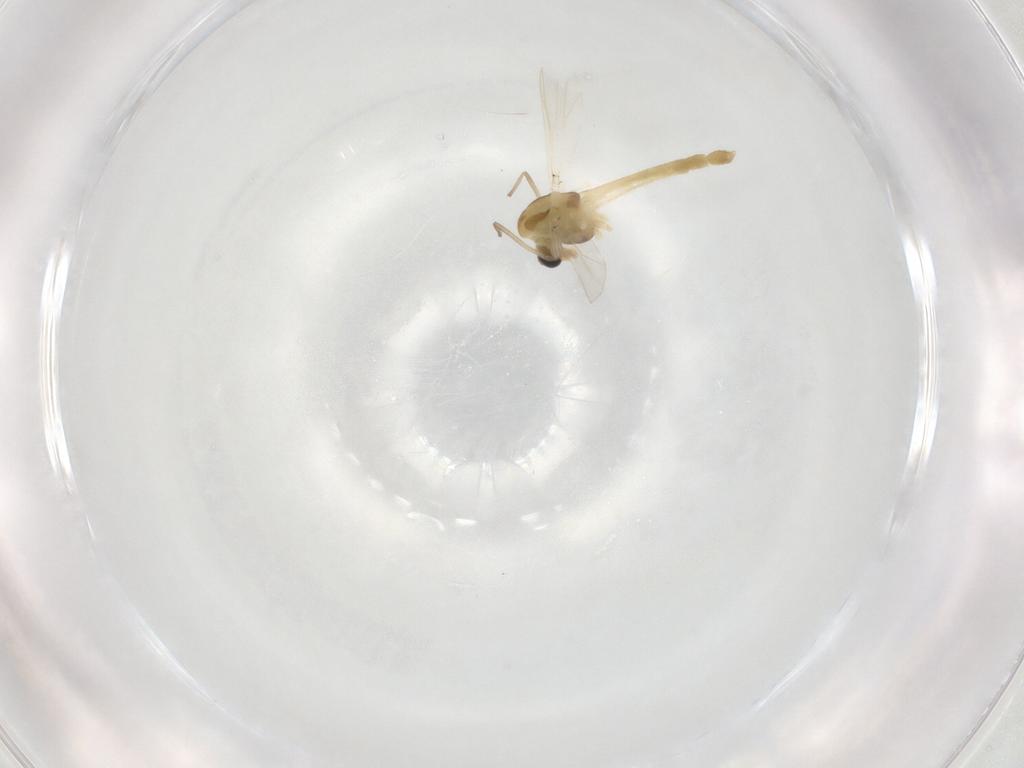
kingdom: Animalia
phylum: Arthropoda
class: Insecta
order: Diptera
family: Chironomidae
